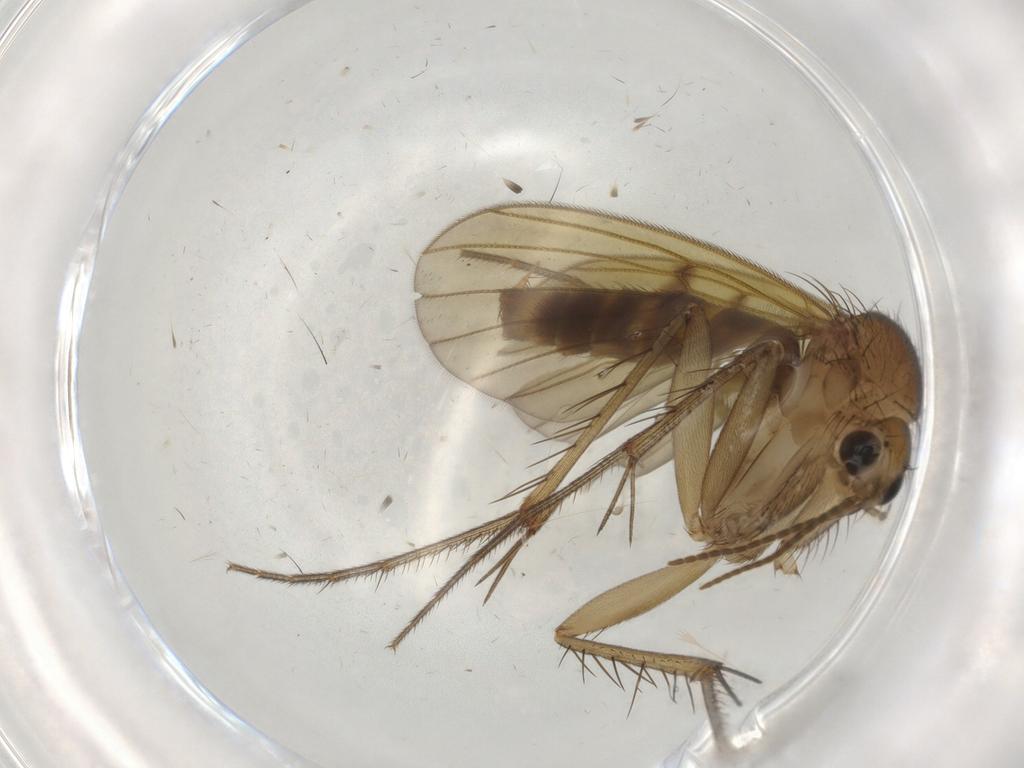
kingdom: Animalia
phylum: Arthropoda
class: Insecta
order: Diptera
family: Mycetophilidae
